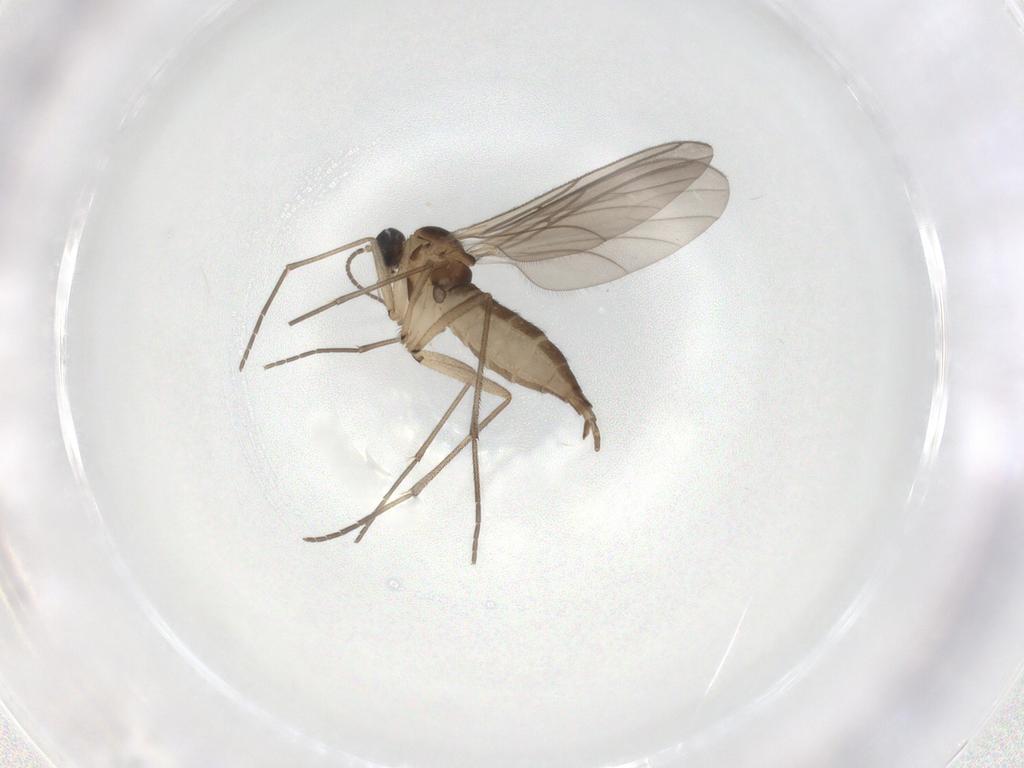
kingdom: Animalia
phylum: Arthropoda
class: Insecta
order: Diptera
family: Sciaridae
